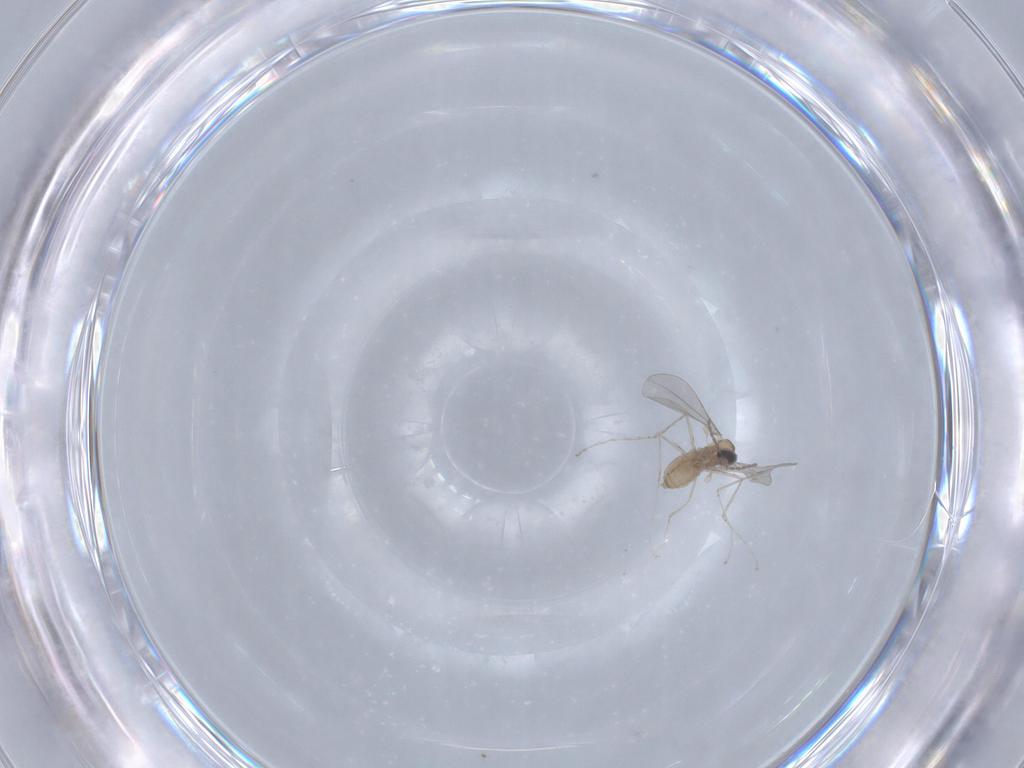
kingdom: Animalia
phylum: Arthropoda
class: Insecta
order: Diptera
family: Cecidomyiidae
